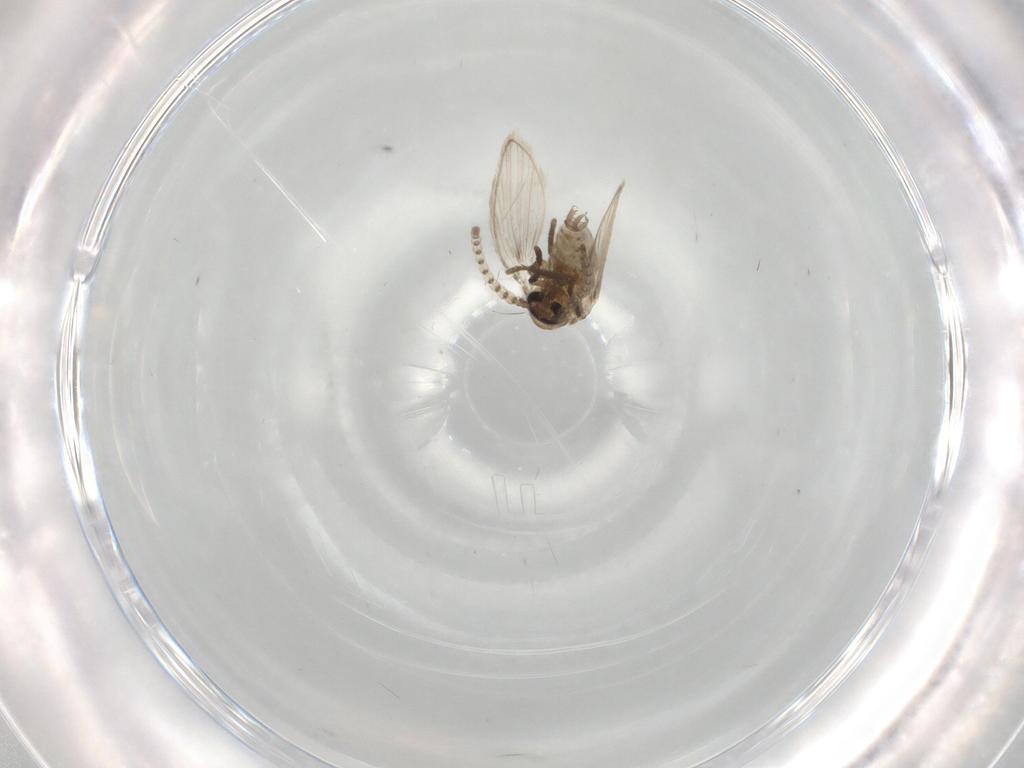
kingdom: Animalia
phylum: Arthropoda
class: Insecta
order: Diptera
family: Psychodidae
